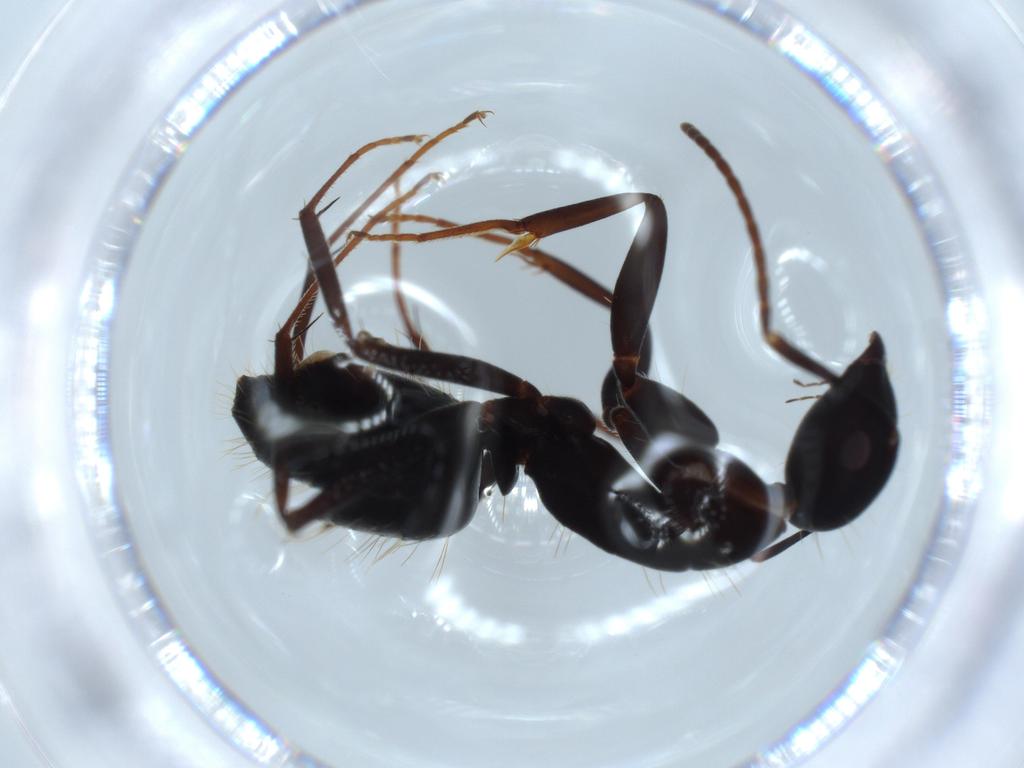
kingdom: Animalia
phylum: Arthropoda
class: Insecta
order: Hymenoptera
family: Formicidae
